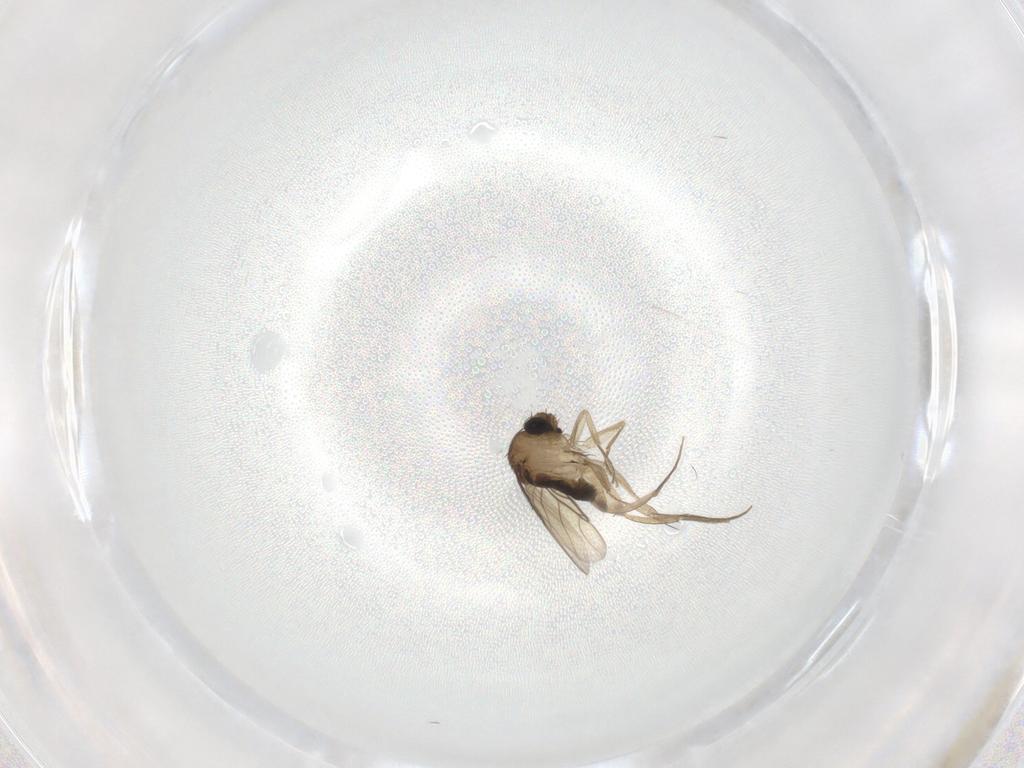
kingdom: Animalia
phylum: Arthropoda
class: Insecta
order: Diptera
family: Phoridae
